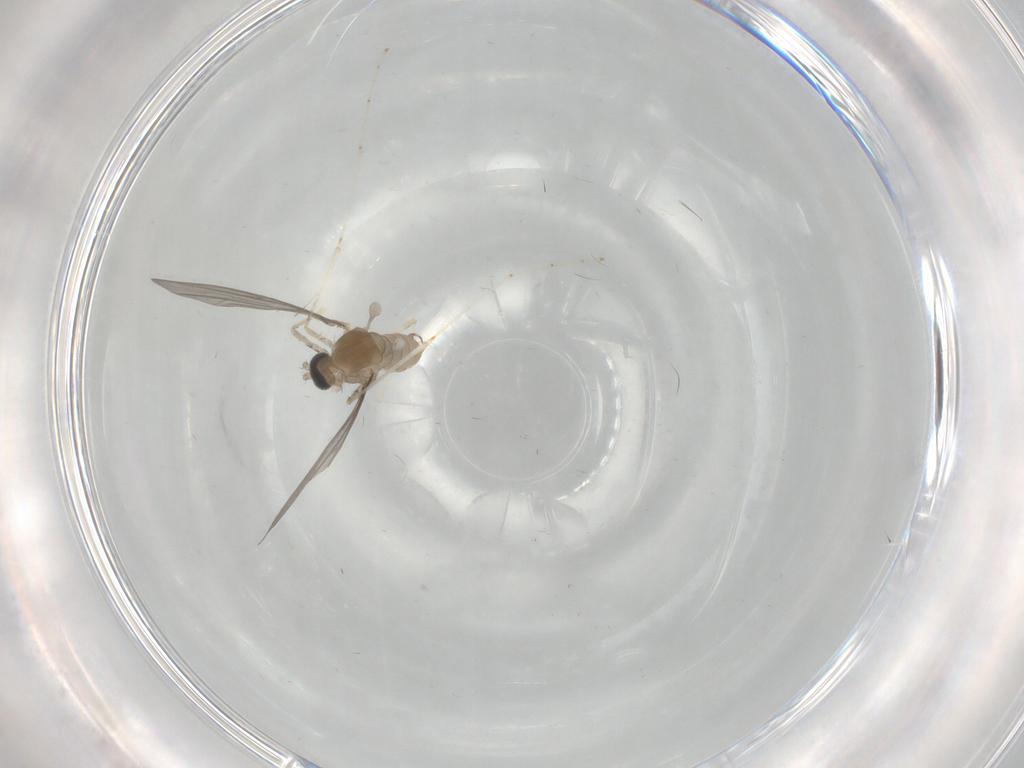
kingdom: Animalia
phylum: Arthropoda
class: Insecta
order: Diptera
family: Cecidomyiidae
